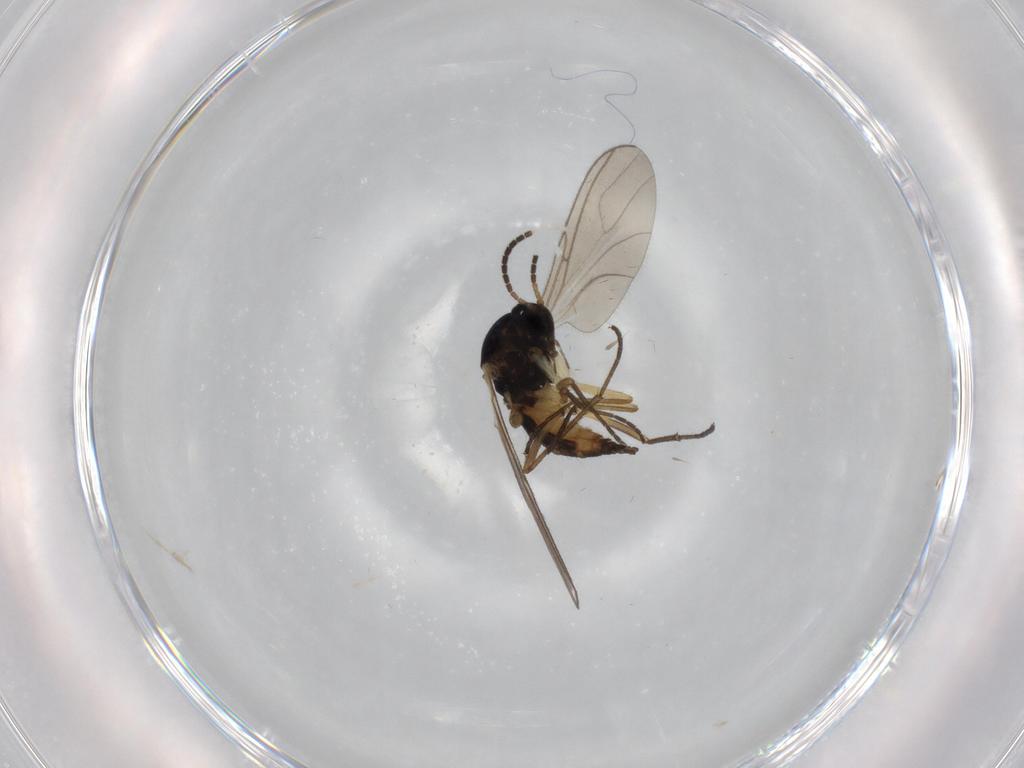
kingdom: Animalia
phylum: Arthropoda
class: Insecta
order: Diptera
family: Sciaridae
